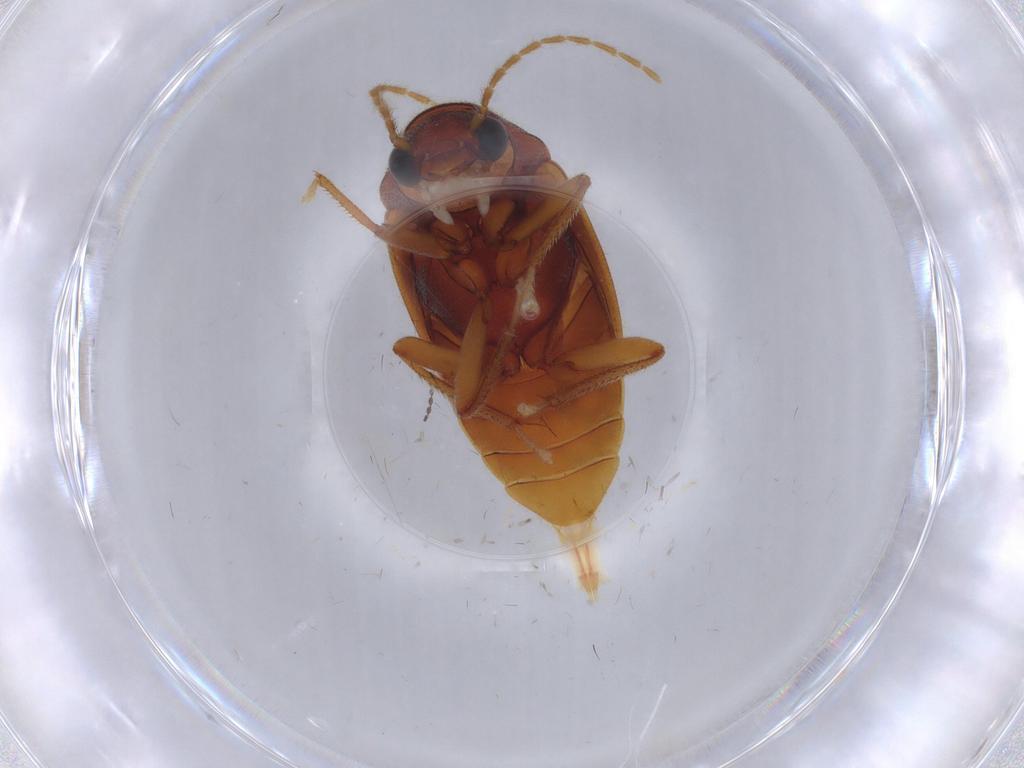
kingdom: Animalia
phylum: Arthropoda
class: Insecta
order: Coleoptera
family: Ptilodactylidae
